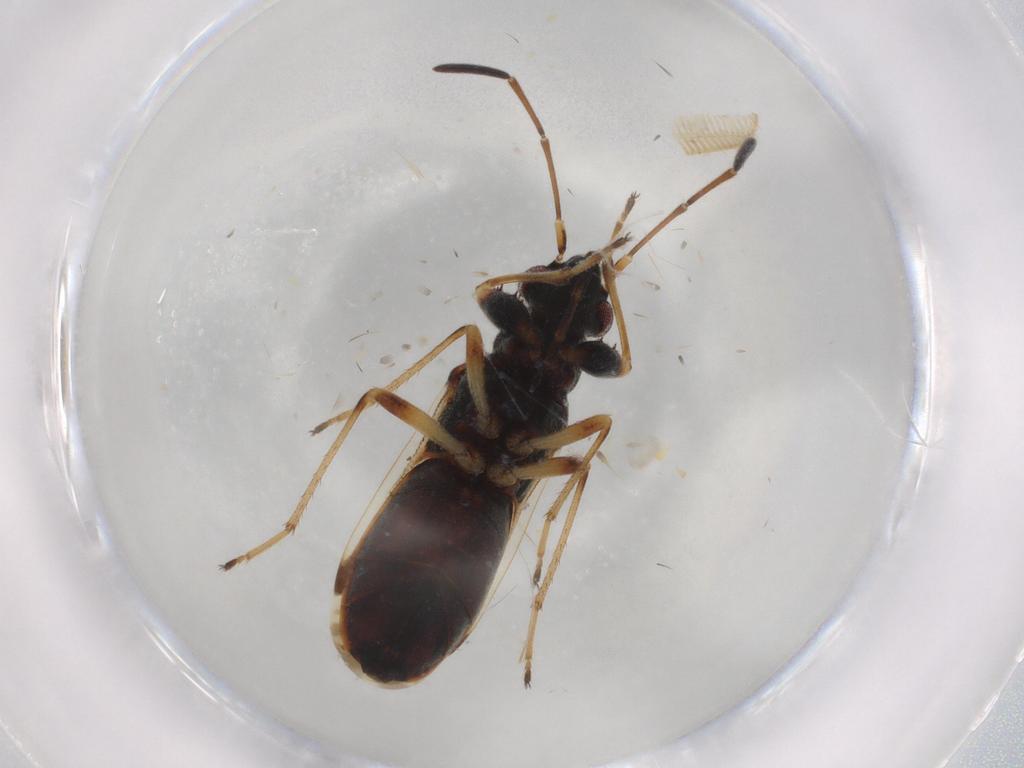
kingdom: Animalia
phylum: Arthropoda
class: Insecta
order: Hemiptera
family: Rhyparochromidae
